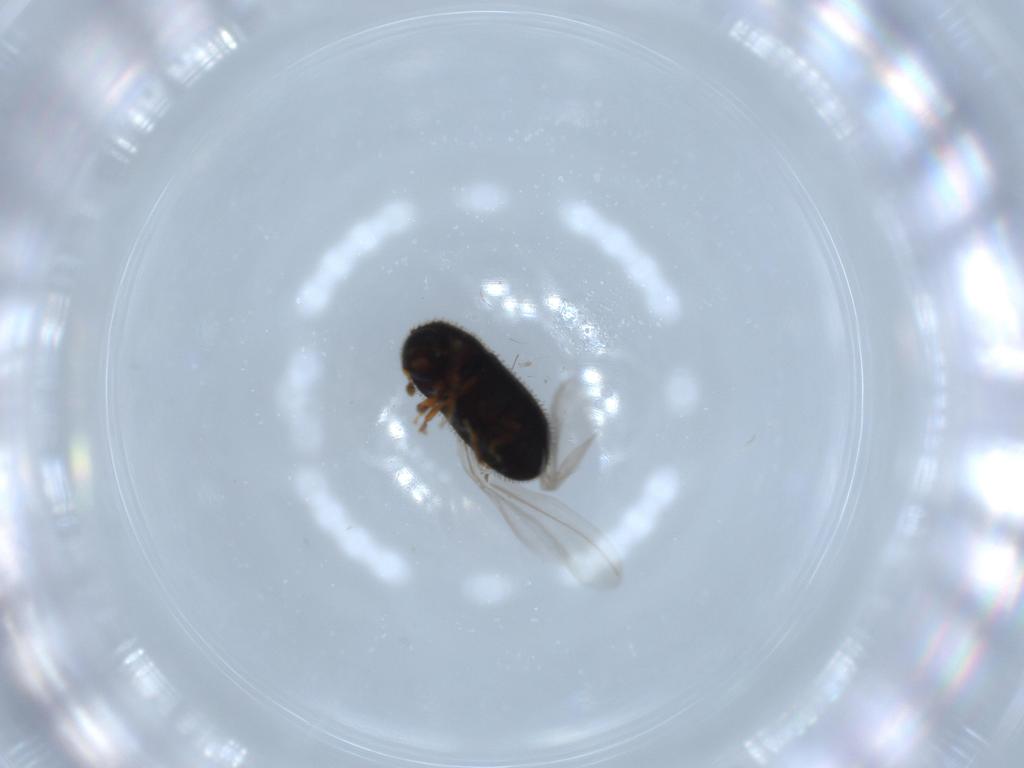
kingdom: Animalia
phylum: Arthropoda
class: Insecta
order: Coleoptera
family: Curculionidae
